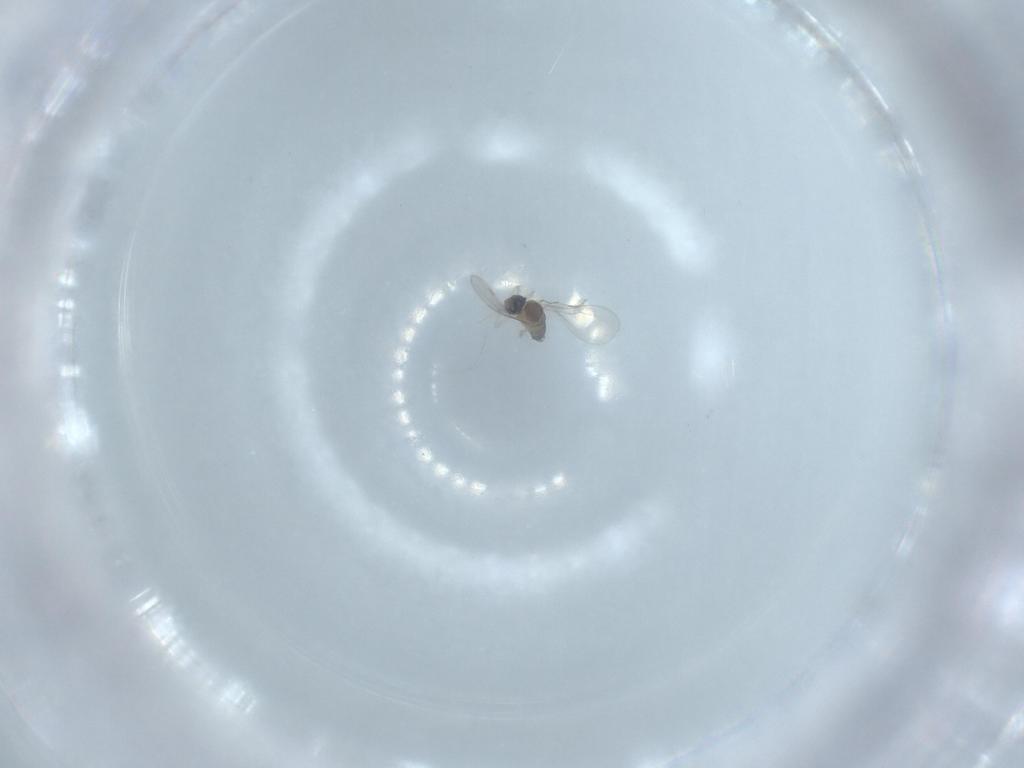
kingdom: Animalia
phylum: Arthropoda
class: Insecta
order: Diptera
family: Cecidomyiidae
